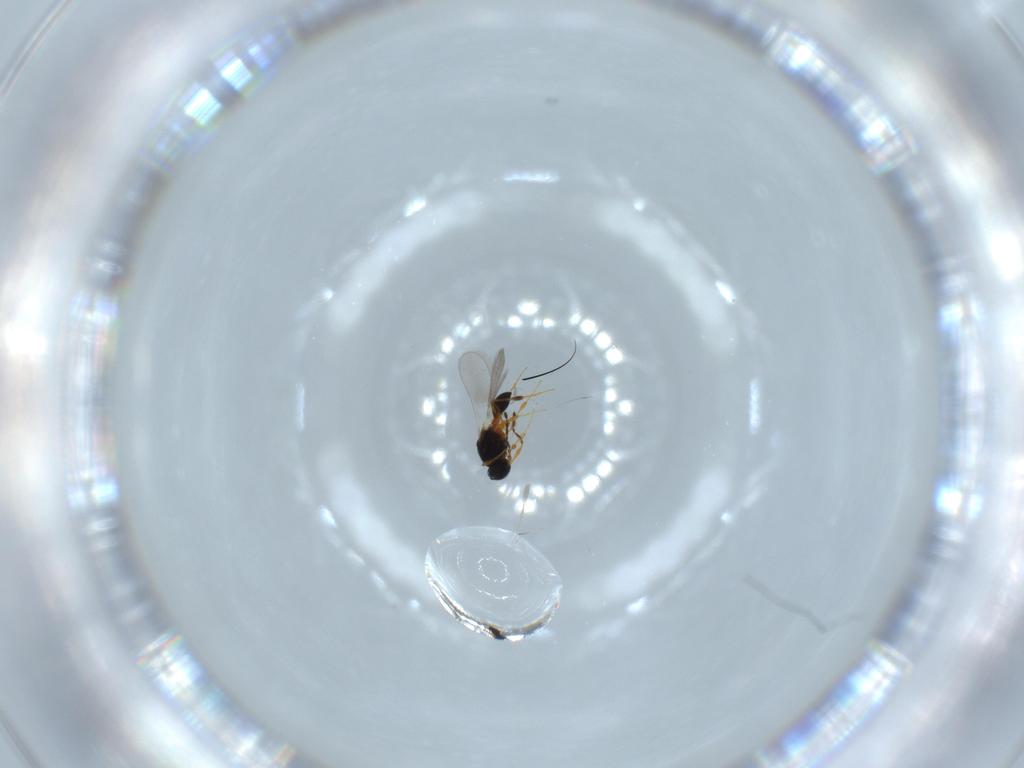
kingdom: Animalia
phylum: Arthropoda
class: Insecta
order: Hymenoptera
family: Platygastridae
